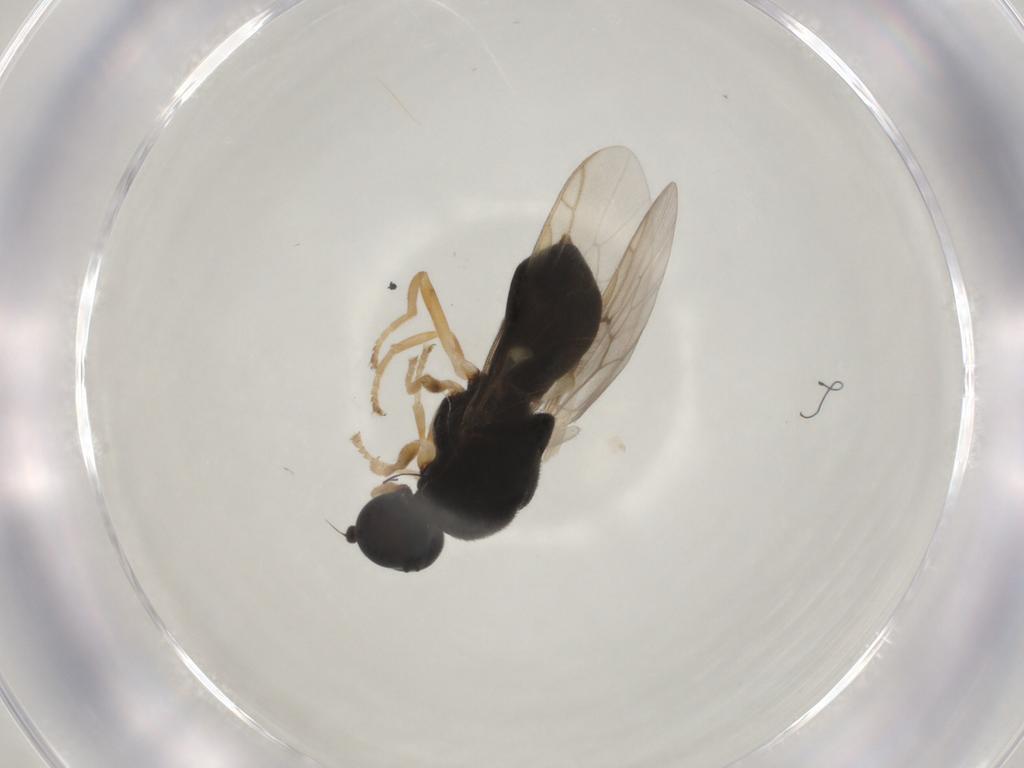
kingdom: Animalia
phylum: Arthropoda
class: Insecta
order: Diptera
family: Stratiomyidae
